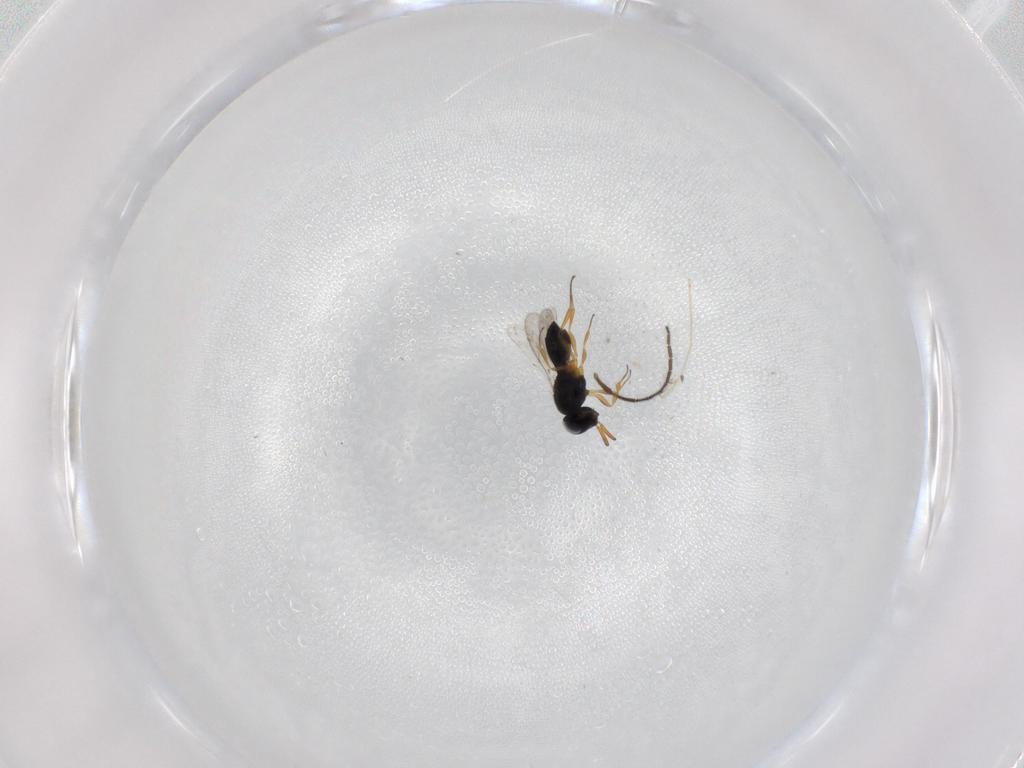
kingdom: Animalia
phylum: Arthropoda
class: Insecta
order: Hymenoptera
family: Scelionidae
